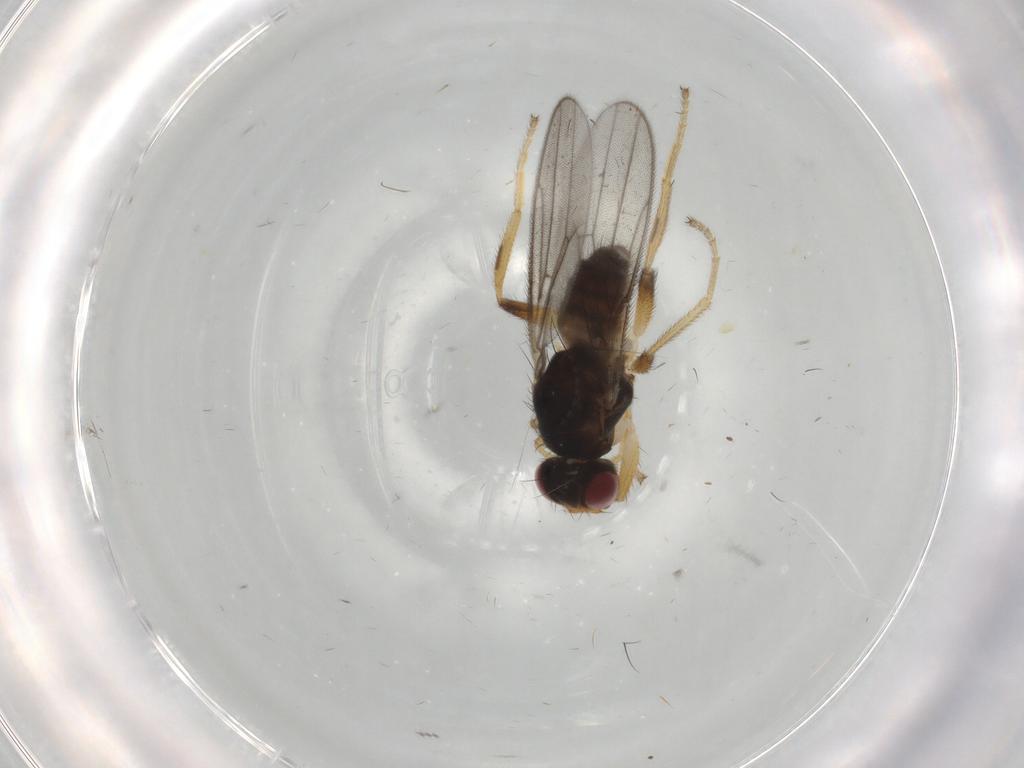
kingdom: Animalia
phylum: Arthropoda
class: Insecta
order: Diptera
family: Chloropidae
